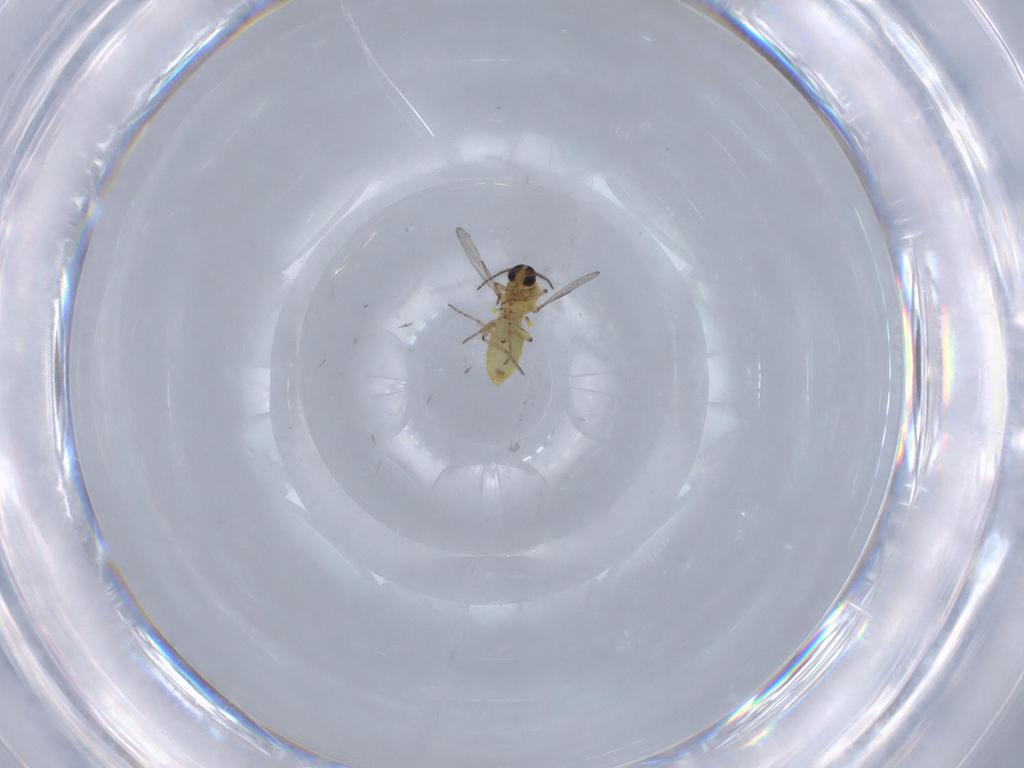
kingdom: Animalia
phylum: Arthropoda
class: Insecta
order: Diptera
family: Ceratopogonidae
